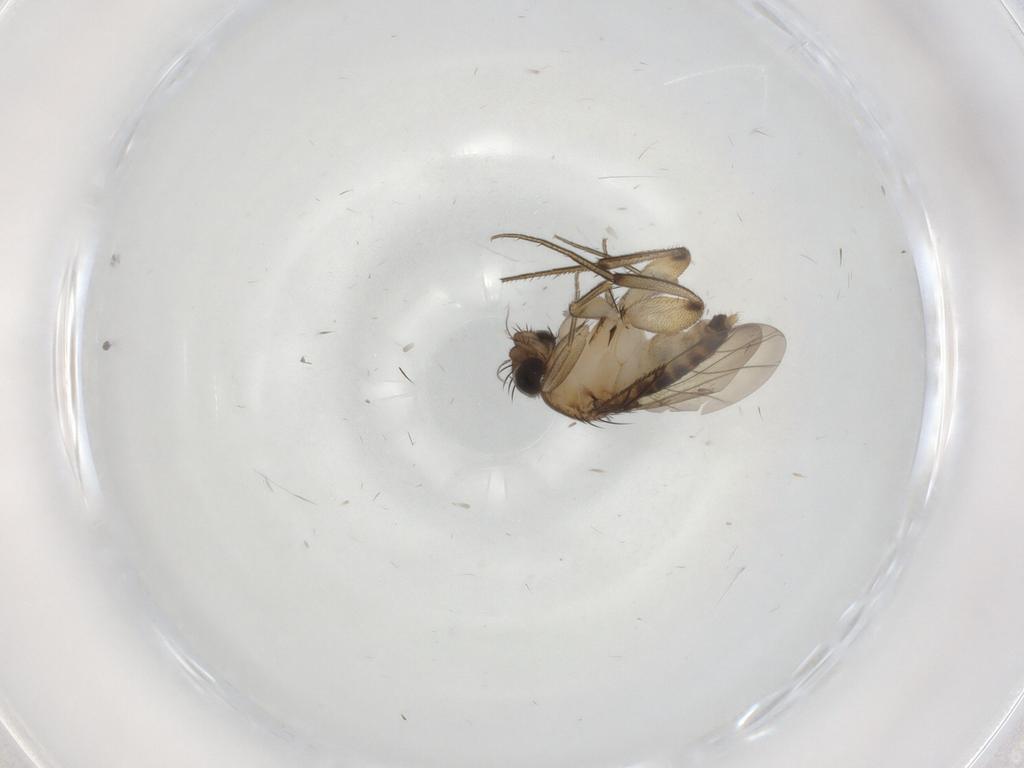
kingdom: Animalia
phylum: Arthropoda
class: Insecta
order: Diptera
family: Phoridae
